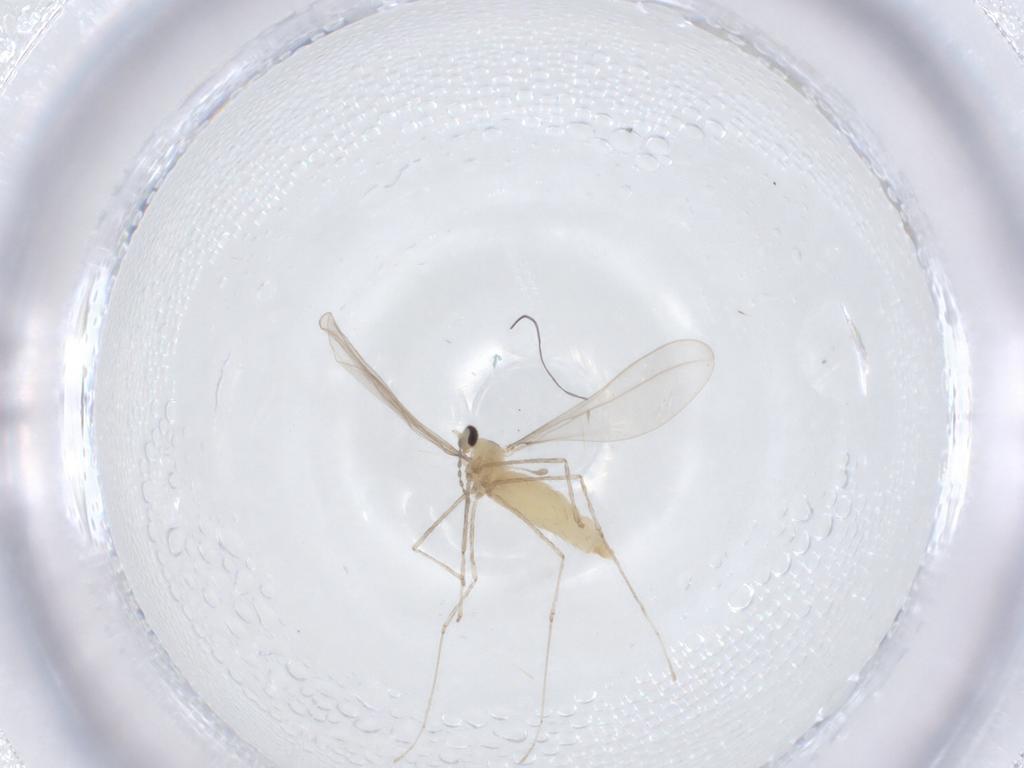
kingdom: Animalia
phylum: Arthropoda
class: Insecta
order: Diptera
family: Cecidomyiidae
